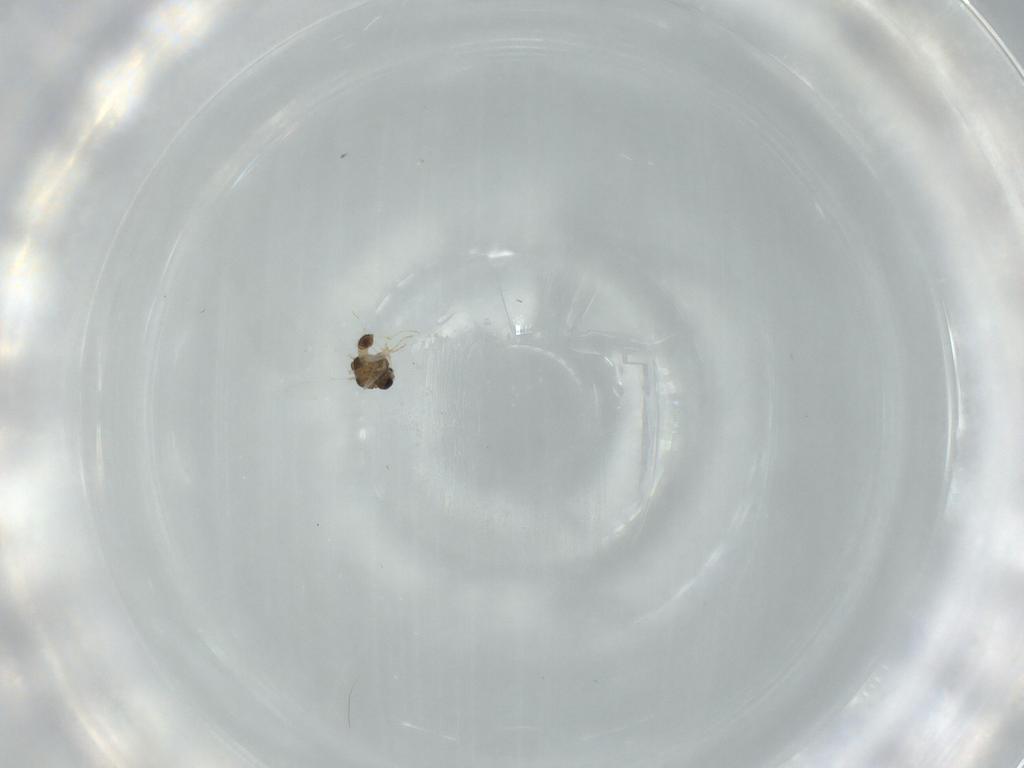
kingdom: Animalia
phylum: Arthropoda
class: Insecta
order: Diptera
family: Chironomidae
